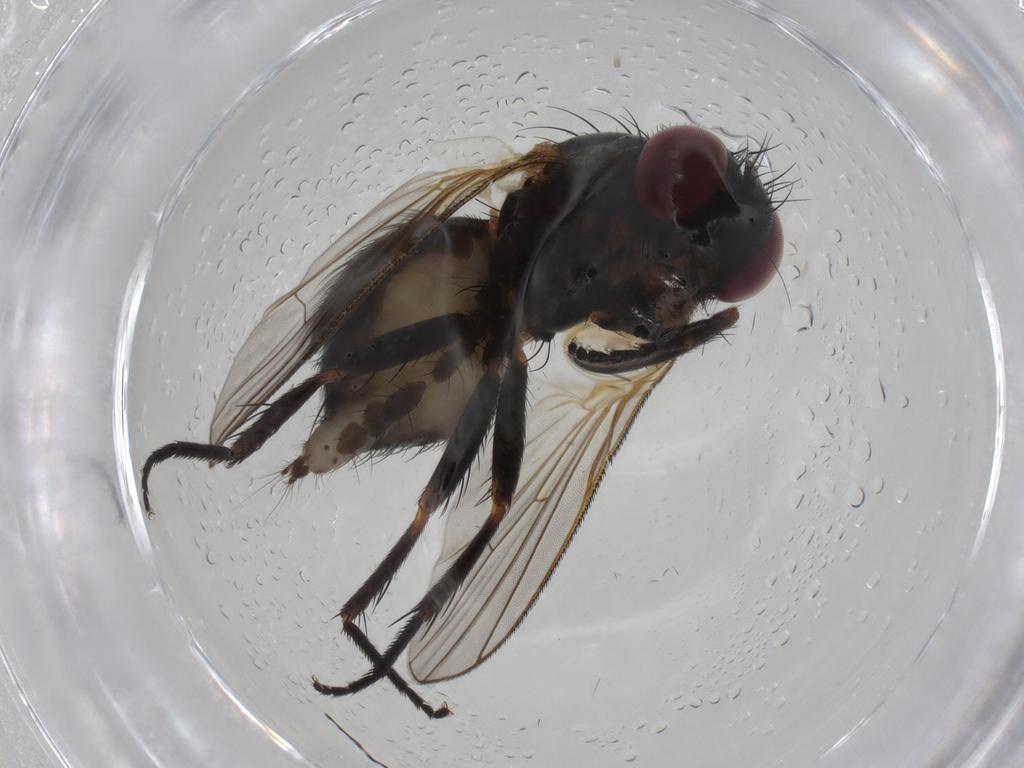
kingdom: Animalia
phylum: Arthropoda
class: Insecta
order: Diptera
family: Fannia
